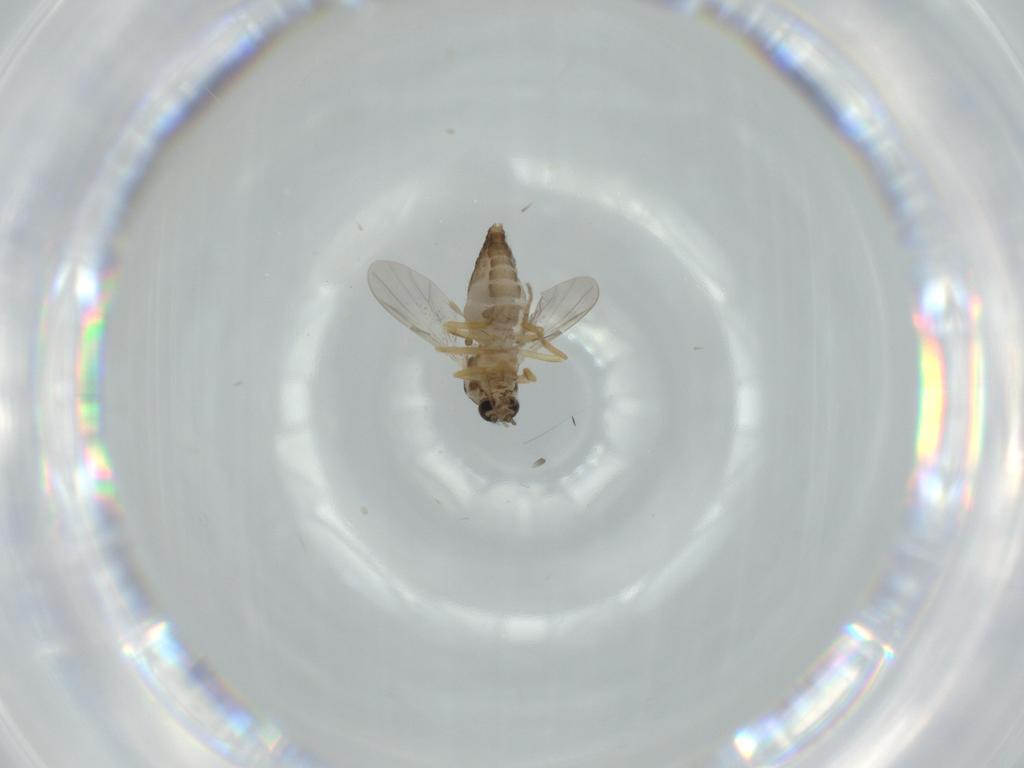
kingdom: Animalia
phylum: Arthropoda
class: Insecta
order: Diptera
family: Ceratopogonidae
